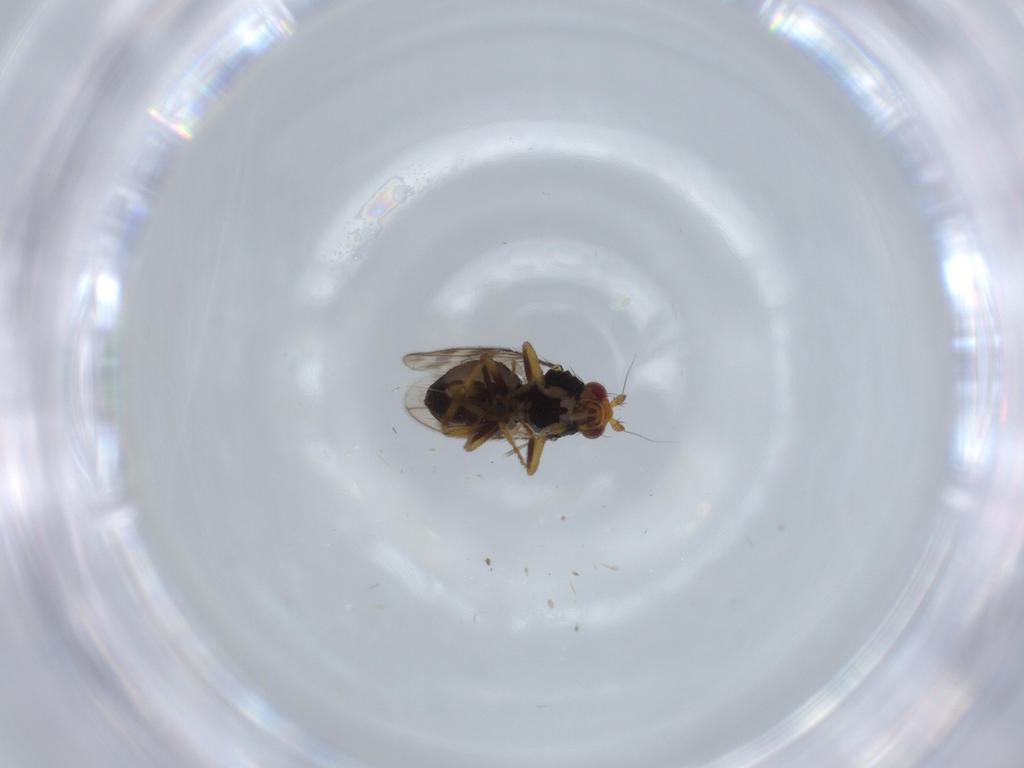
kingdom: Animalia
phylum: Arthropoda
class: Insecta
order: Diptera
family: Sphaeroceridae
